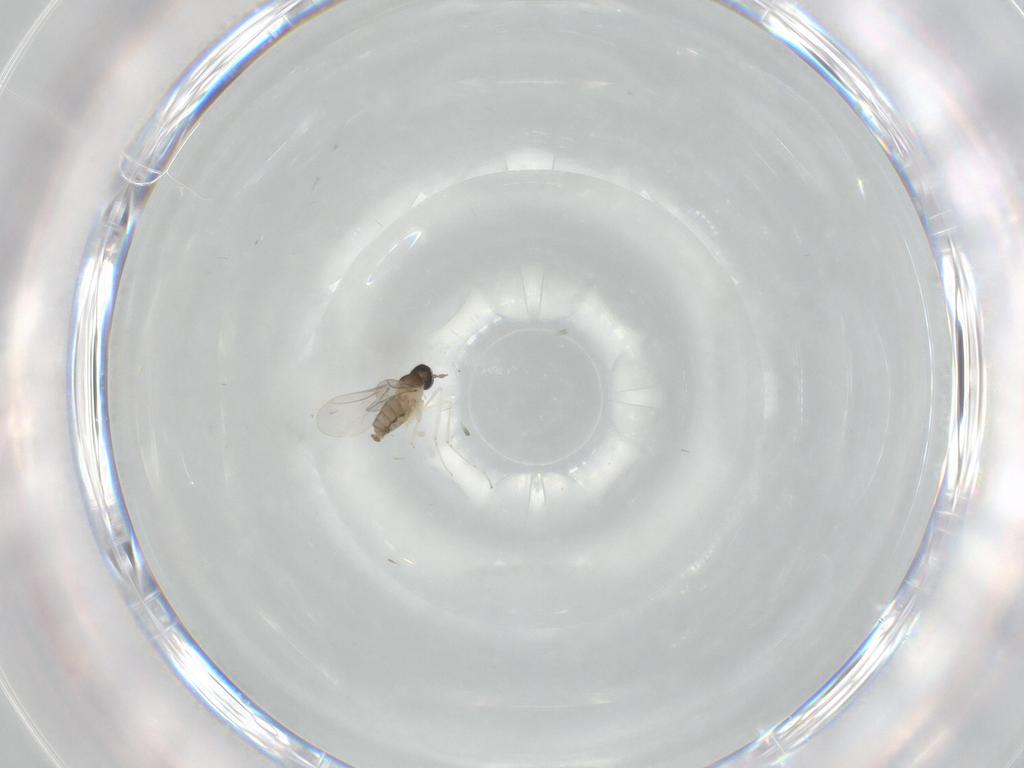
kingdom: Animalia
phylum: Arthropoda
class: Insecta
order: Diptera
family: Cecidomyiidae
